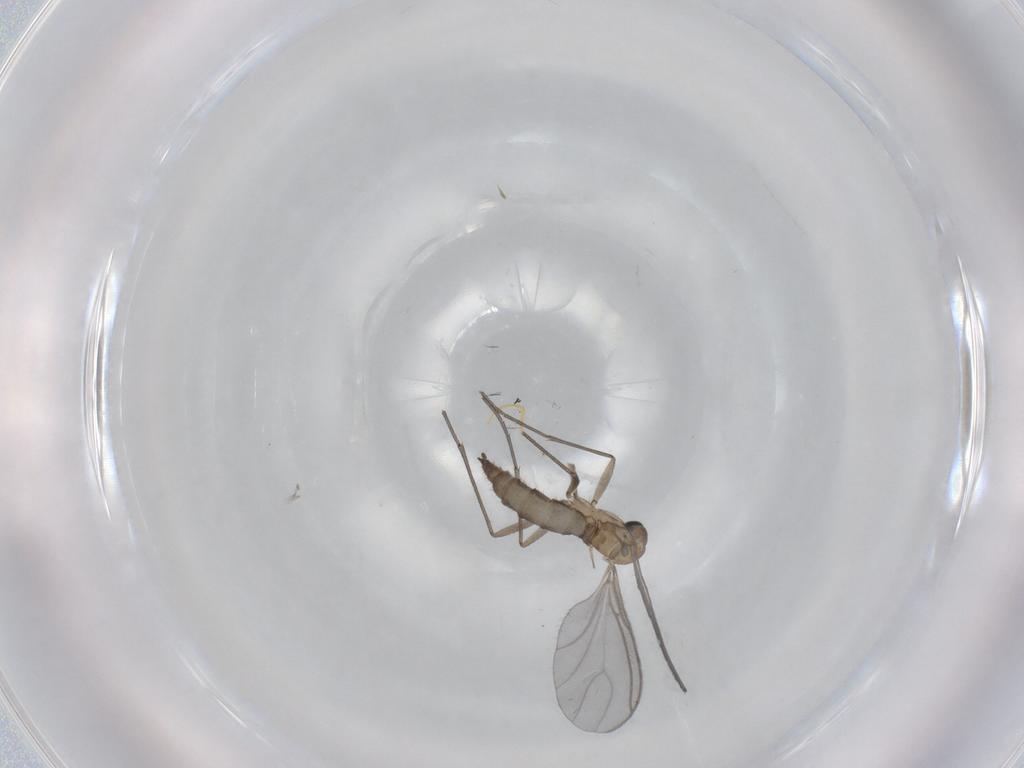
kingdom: Animalia
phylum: Arthropoda
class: Insecta
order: Diptera
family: Sciaridae
